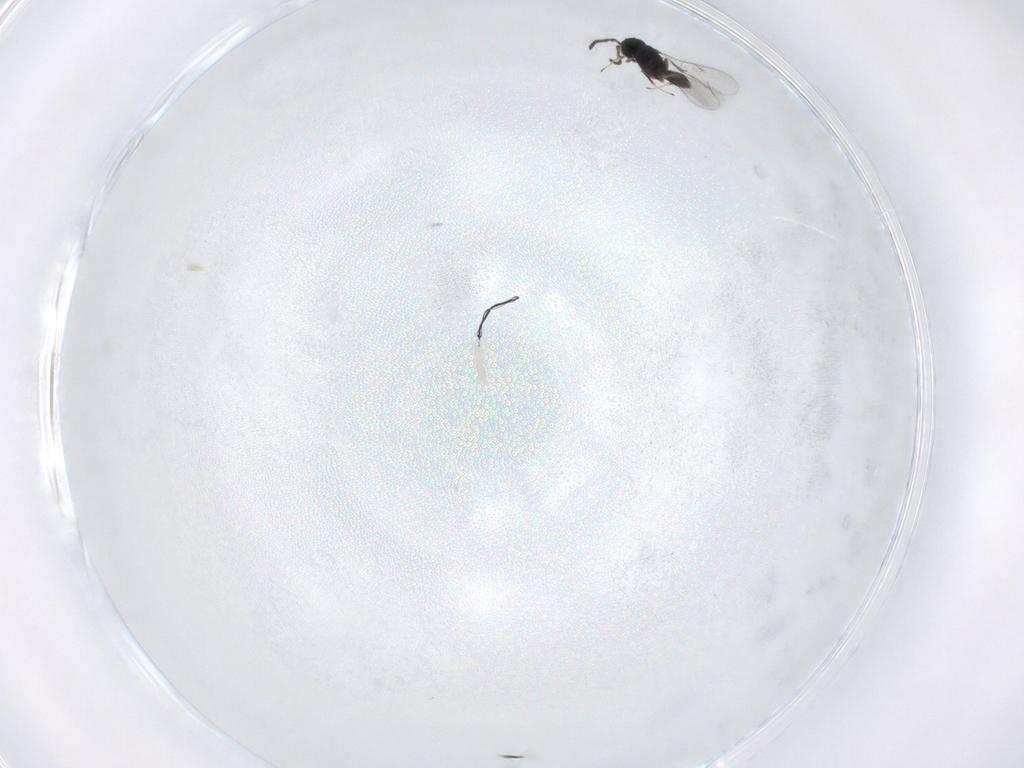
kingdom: Animalia
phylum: Arthropoda
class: Insecta
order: Hymenoptera
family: Scelionidae
